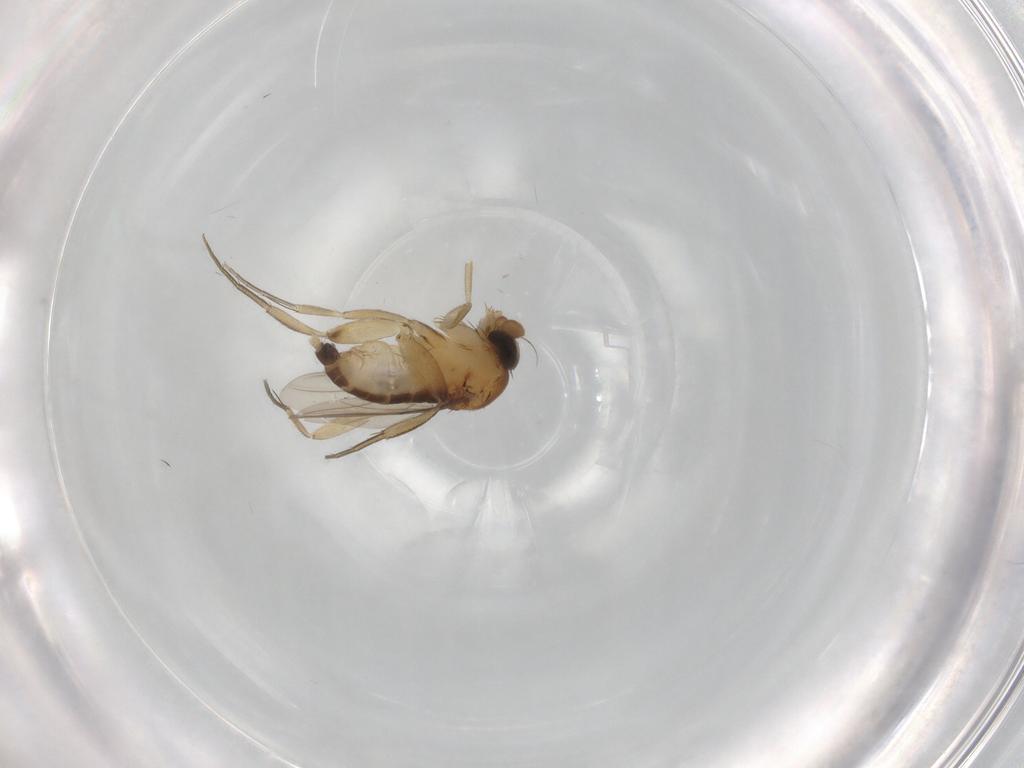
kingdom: Animalia
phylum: Arthropoda
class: Insecta
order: Diptera
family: Phoridae
